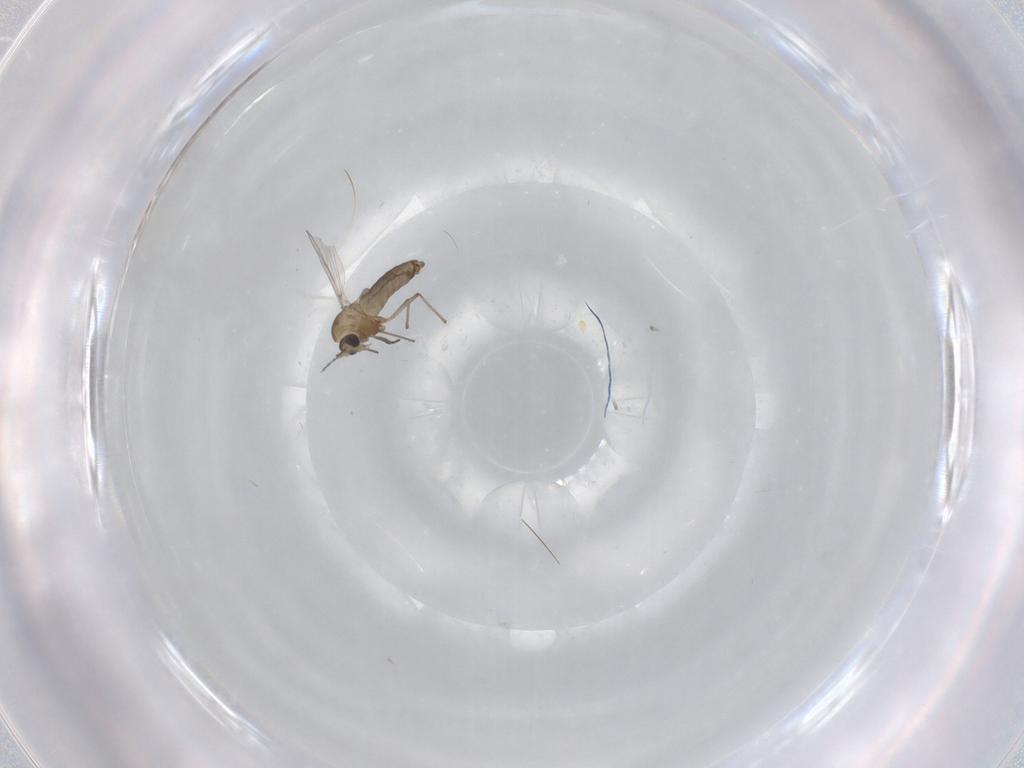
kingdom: Animalia
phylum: Arthropoda
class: Insecta
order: Diptera
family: Chironomidae
